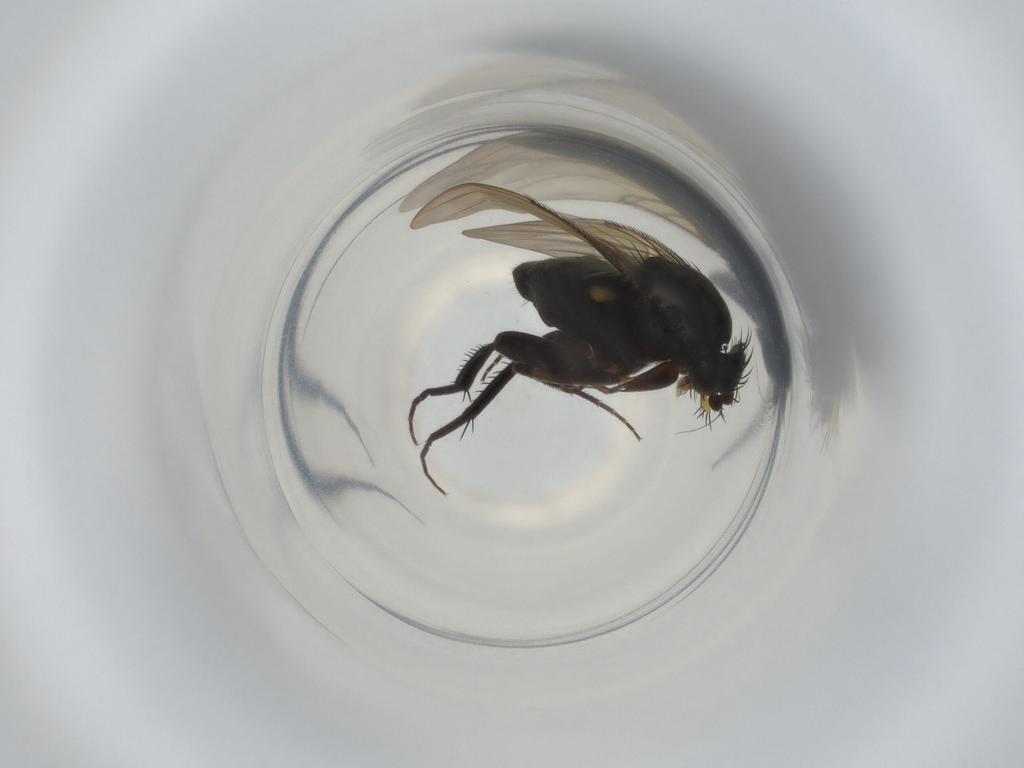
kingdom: Animalia
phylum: Arthropoda
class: Insecta
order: Diptera
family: Phoridae
